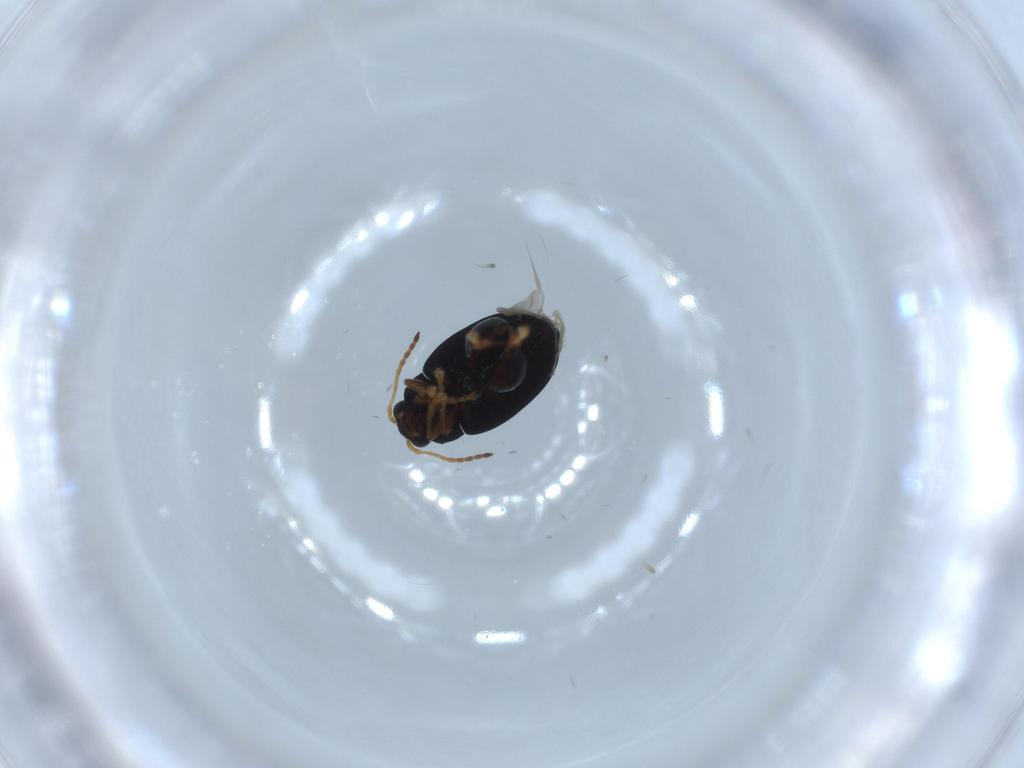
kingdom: Animalia
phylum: Arthropoda
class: Insecta
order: Coleoptera
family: Chrysomelidae
